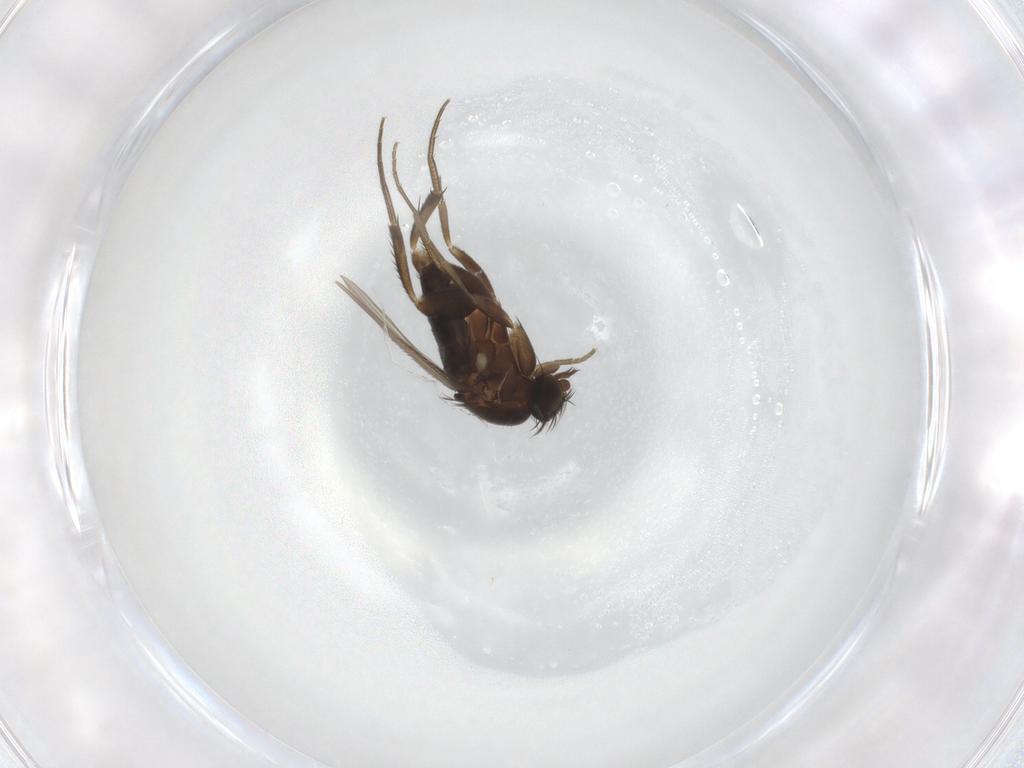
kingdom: Animalia
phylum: Arthropoda
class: Insecta
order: Diptera
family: Phoridae
